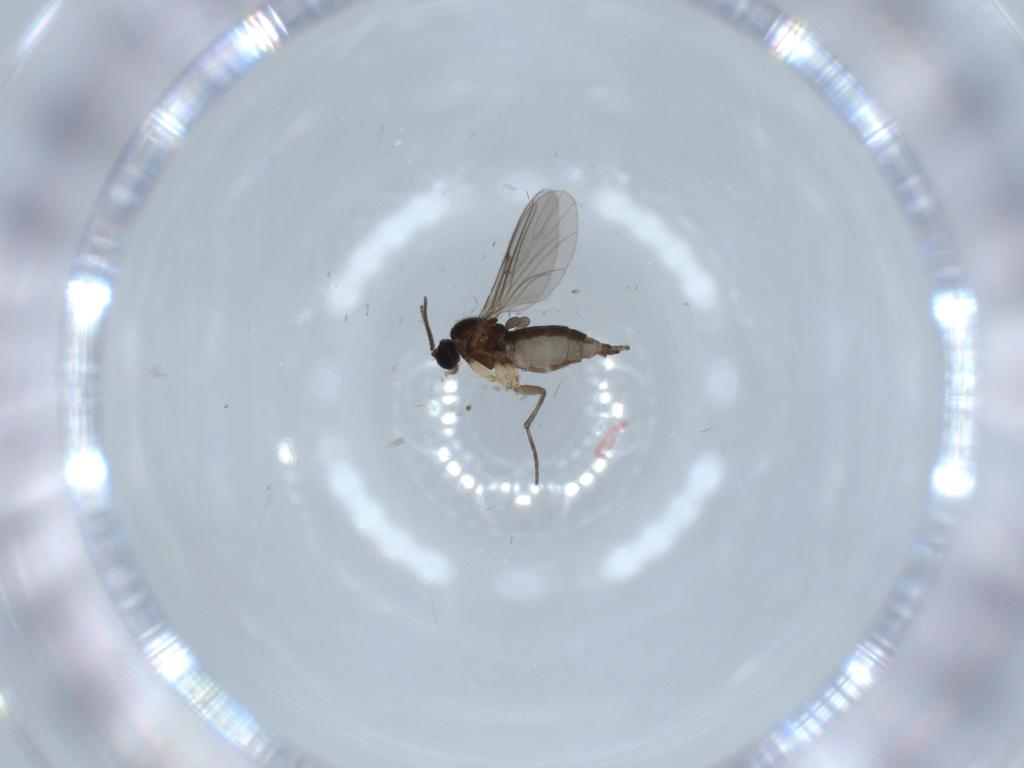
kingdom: Animalia
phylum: Arthropoda
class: Insecta
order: Diptera
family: Sciaridae
